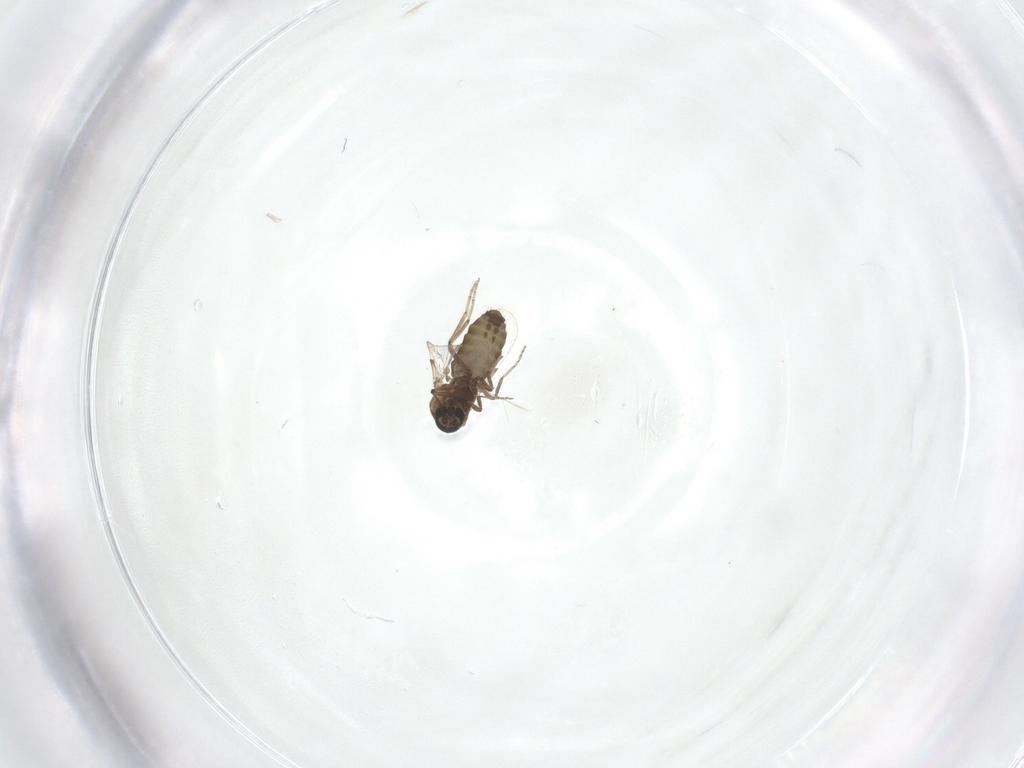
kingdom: Animalia
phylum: Arthropoda
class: Insecta
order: Diptera
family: Ceratopogonidae
